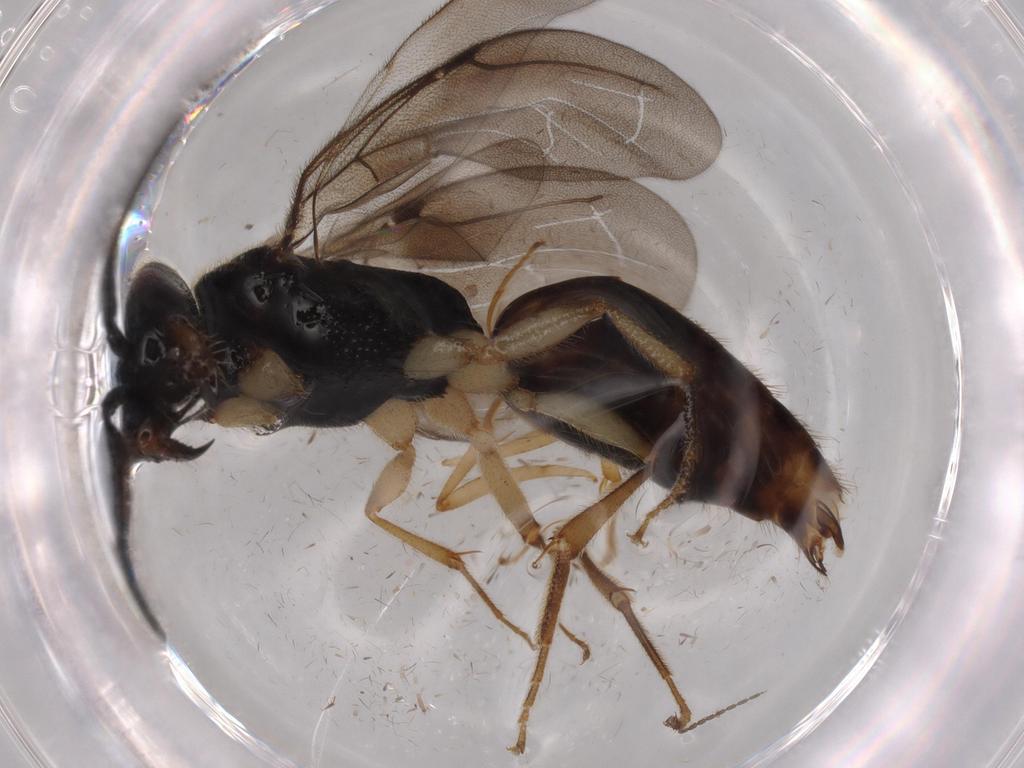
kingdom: Animalia
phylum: Arthropoda
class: Insecta
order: Hymenoptera
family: Bethylidae
